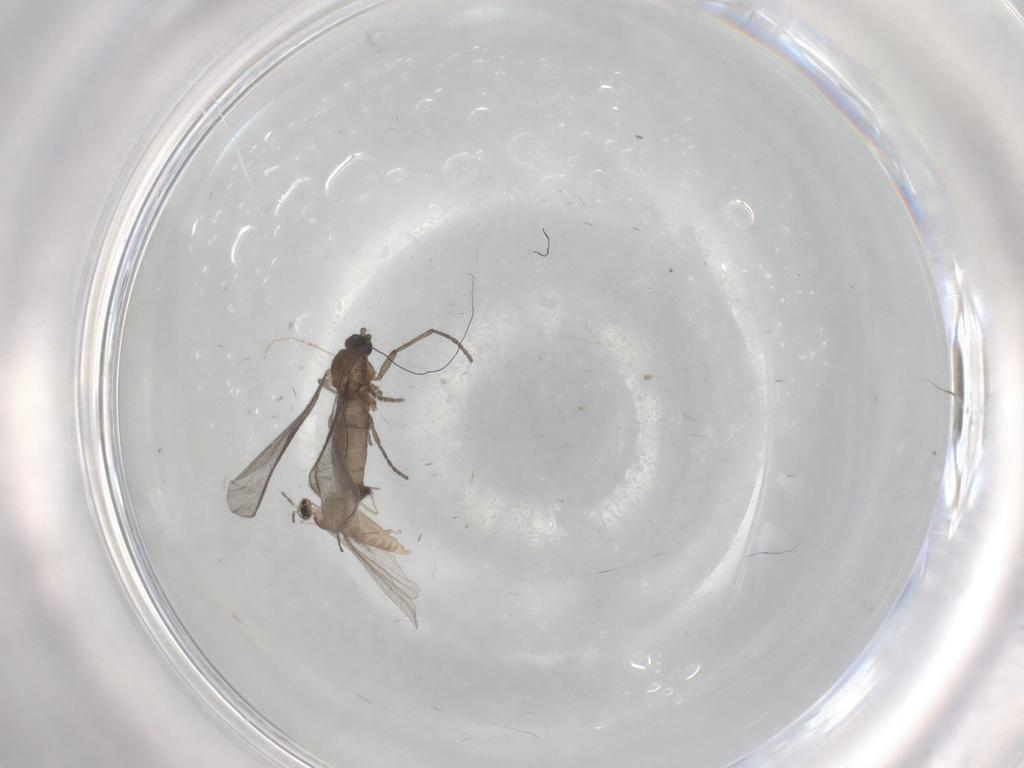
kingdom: Animalia
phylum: Arthropoda
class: Insecta
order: Diptera
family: Sciaridae
